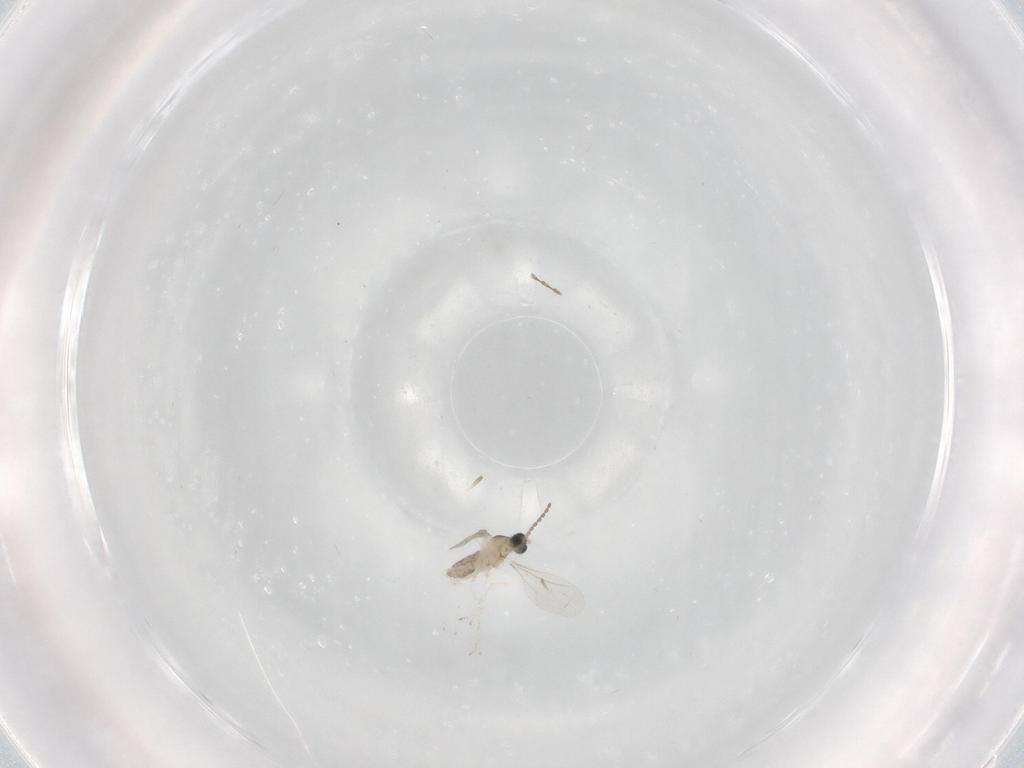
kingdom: Animalia
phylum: Arthropoda
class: Insecta
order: Diptera
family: Cecidomyiidae
